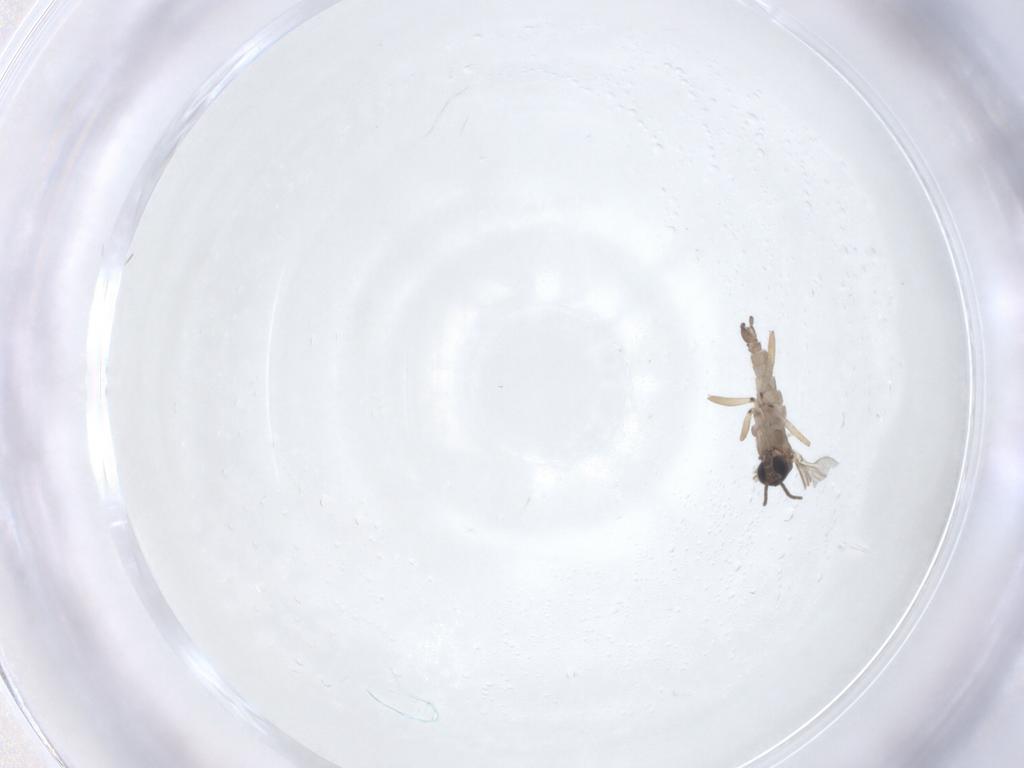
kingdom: Animalia
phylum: Arthropoda
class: Insecta
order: Diptera
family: Sciaridae
